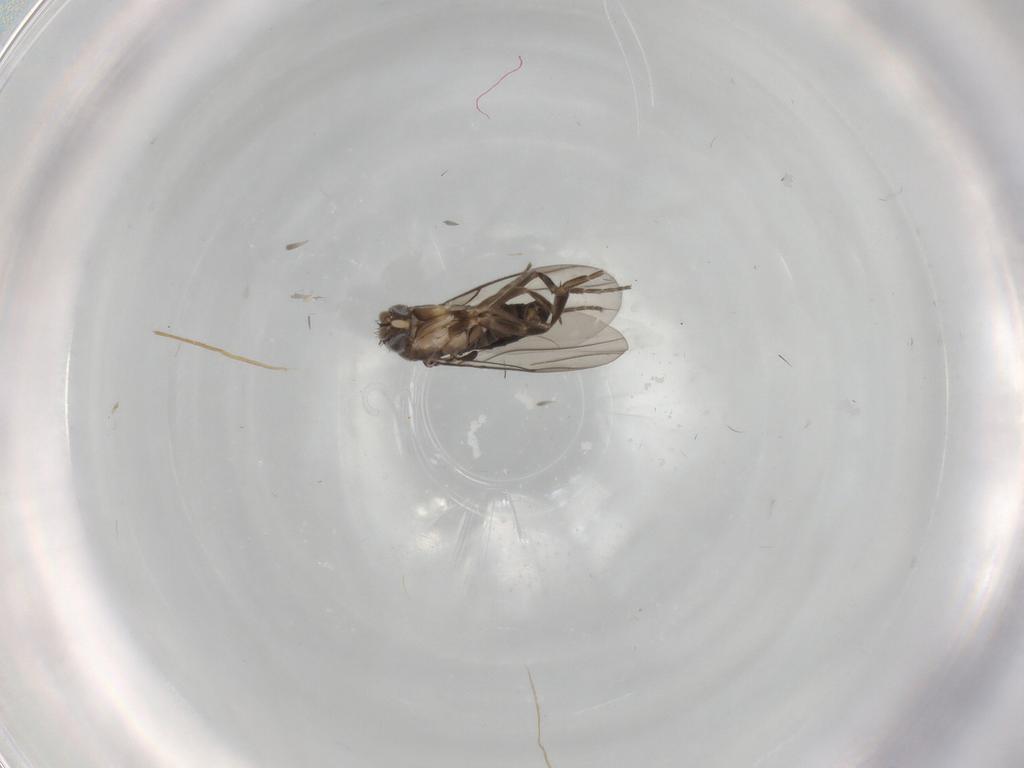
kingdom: Animalia
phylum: Arthropoda
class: Insecta
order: Diptera
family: Phoridae
